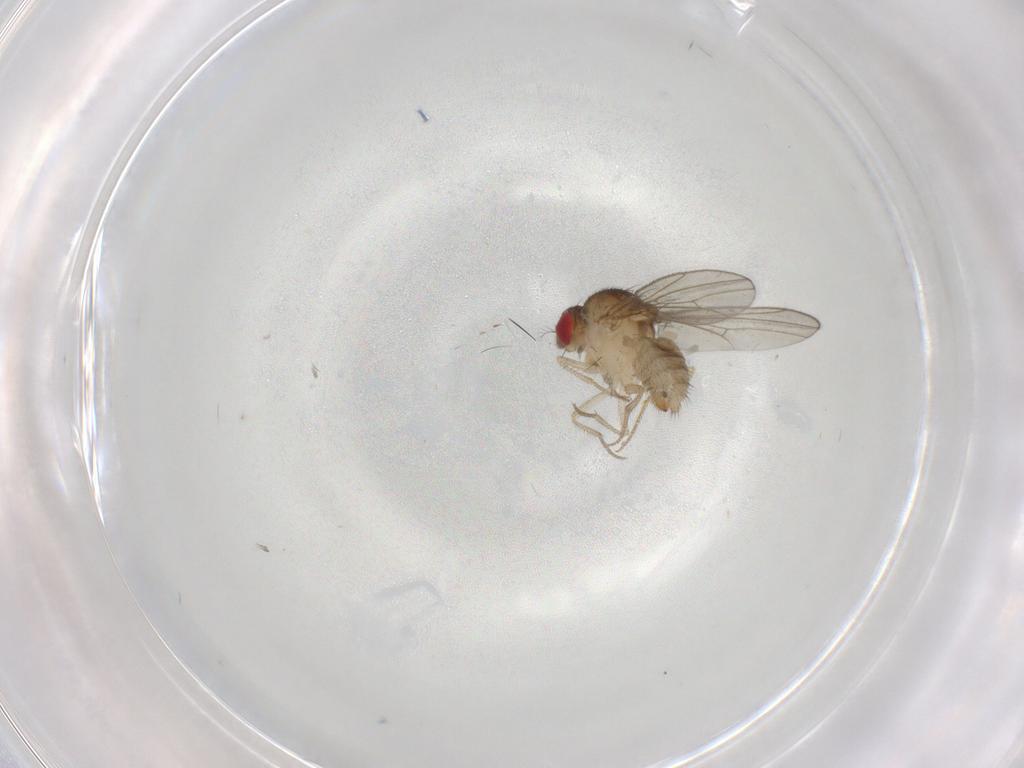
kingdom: Animalia
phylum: Arthropoda
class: Insecta
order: Diptera
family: Drosophilidae
